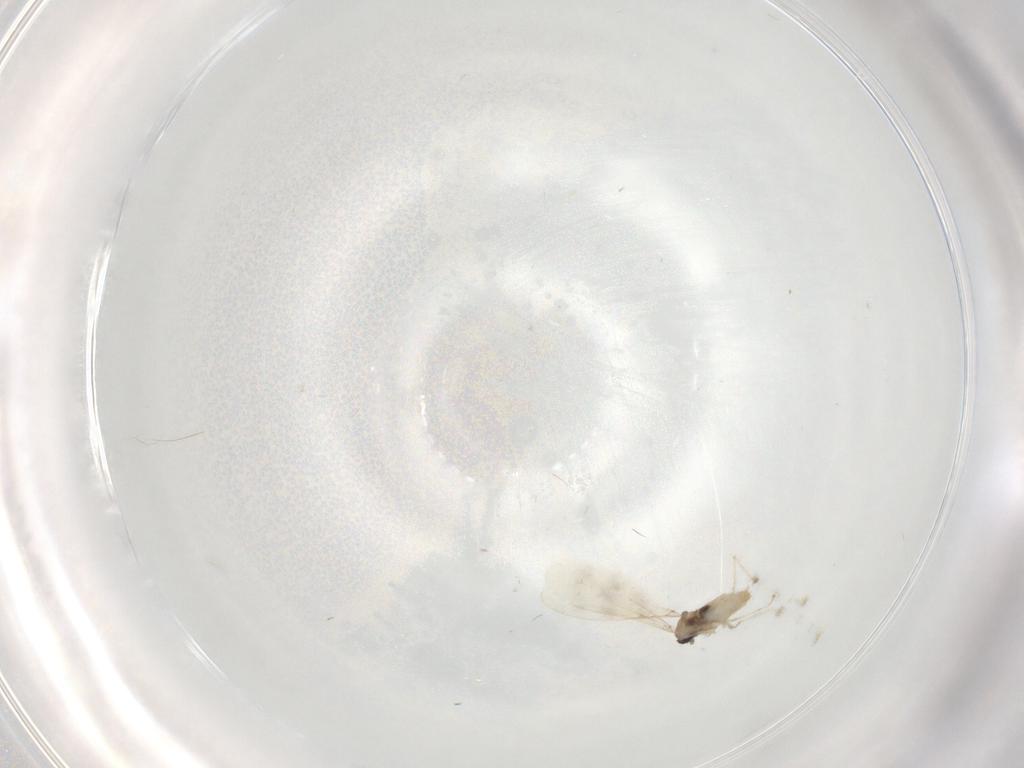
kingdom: Animalia
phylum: Arthropoda
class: Insecta
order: Diptera
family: Cecidomyiidae
